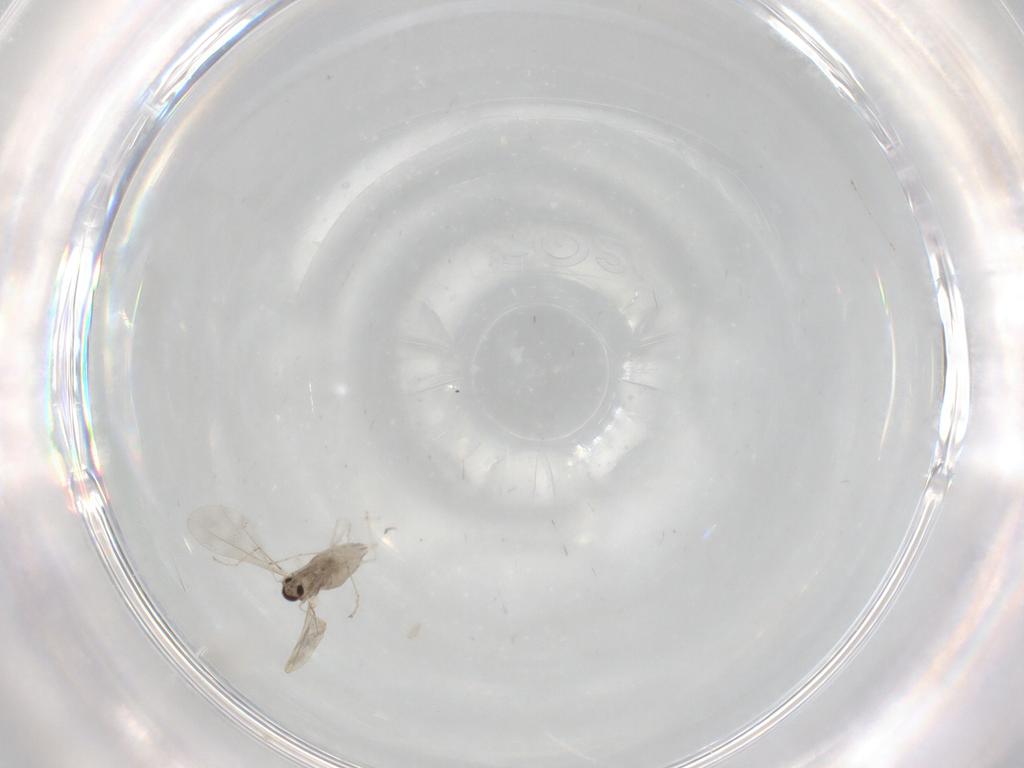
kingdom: Animalia
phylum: Arthropoda
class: Insecta
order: Diptera
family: Cecidomyiidae
